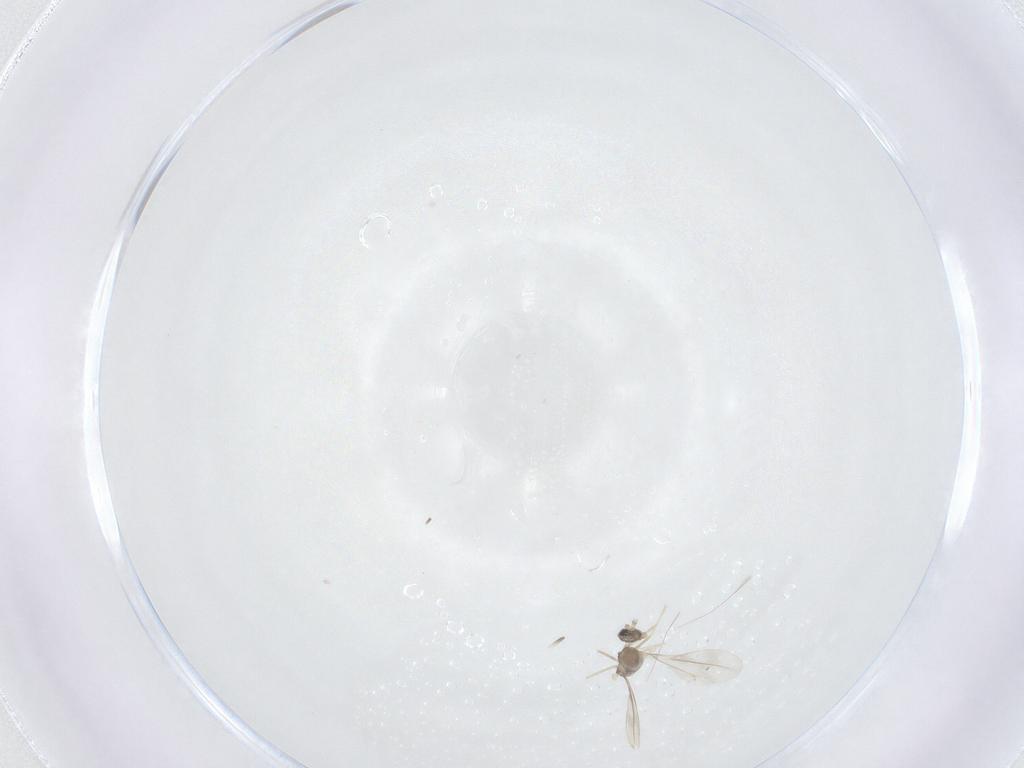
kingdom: Animalia
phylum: Arthropoda
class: Insecta
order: Diptera
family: Cecidomyiidae
